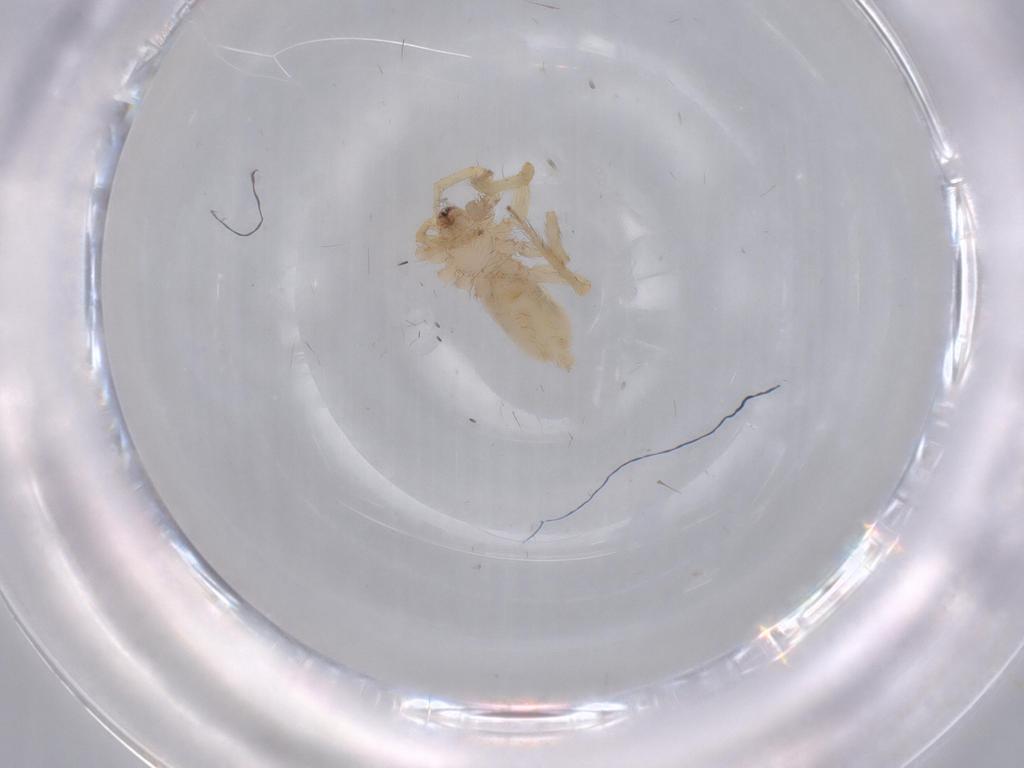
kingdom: Animalia
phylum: Arthropoda
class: Arachnida
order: Araneae
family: Oonopidae
